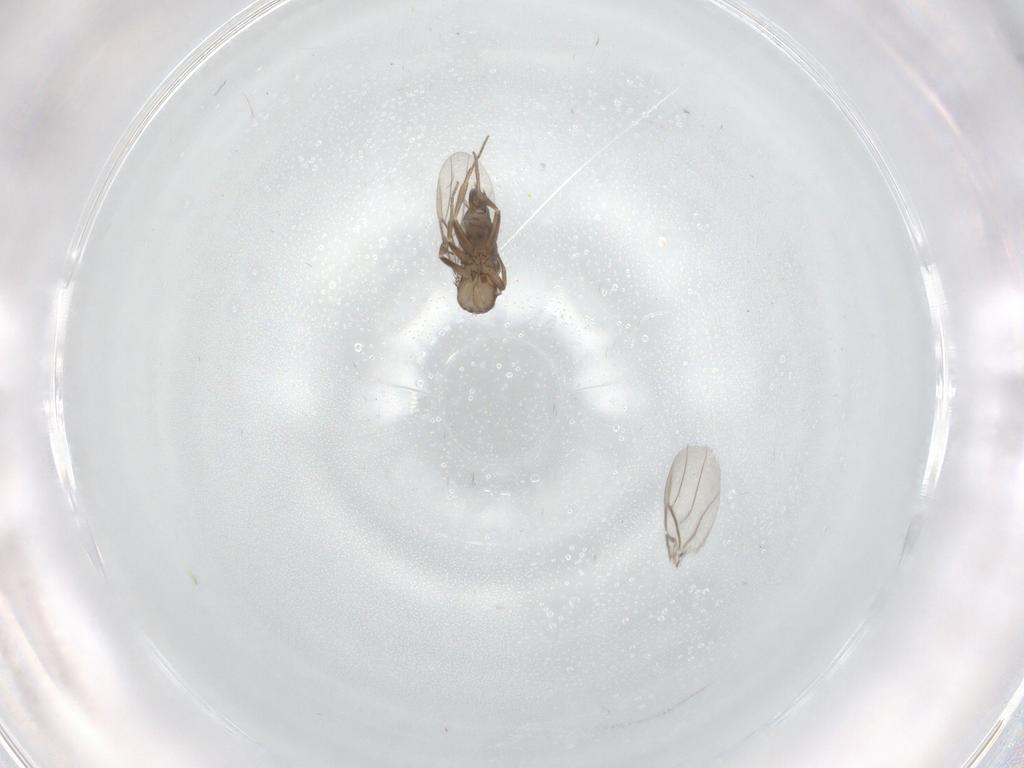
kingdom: Animalia
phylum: Arthropoda
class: Insecta
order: Diptera
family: Phoridae
